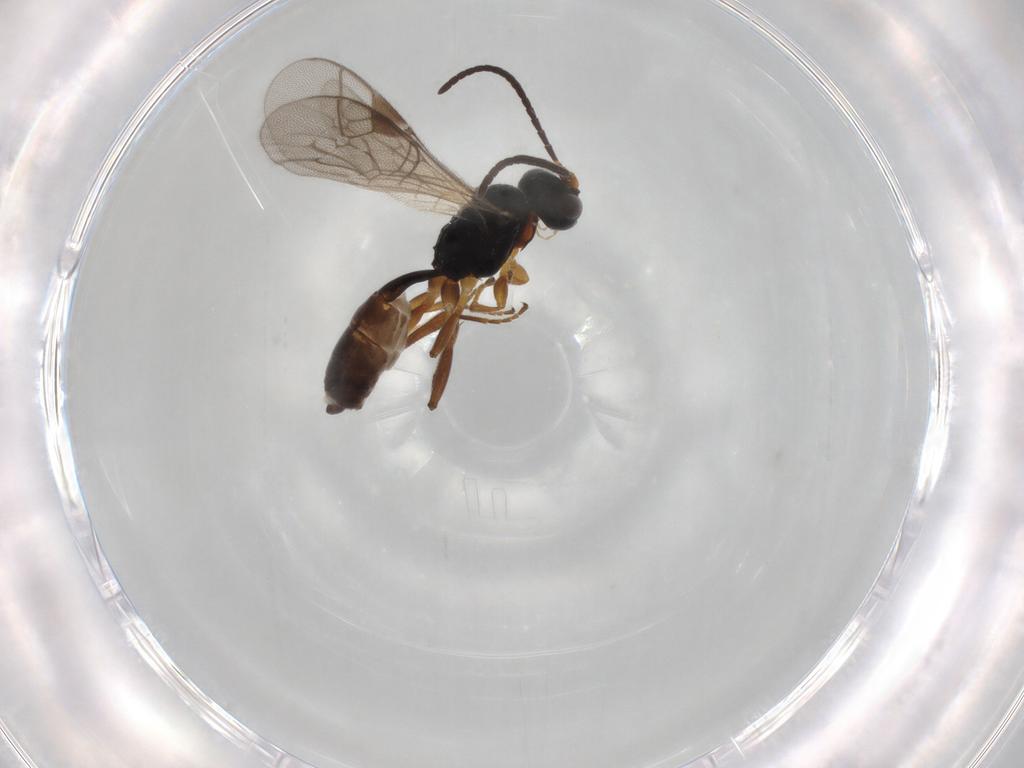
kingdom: Animalia
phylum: Arthropoda
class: Insecta
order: Hymenoptera
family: Ichneumonidae
